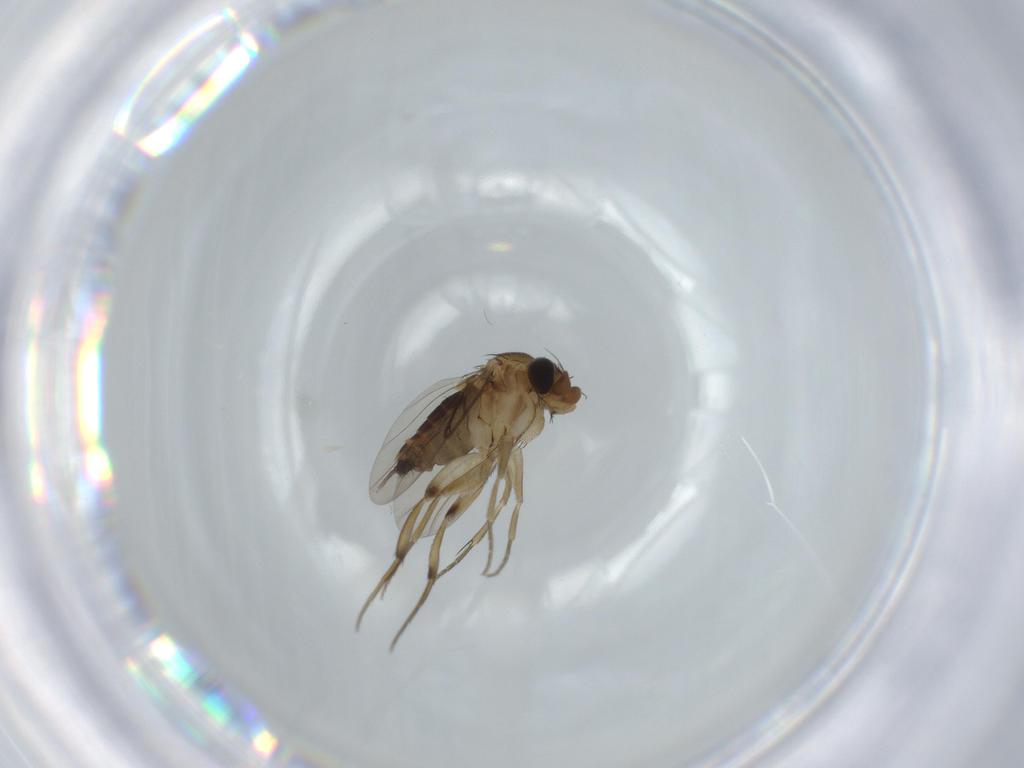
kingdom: Animalia
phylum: Arthropoda
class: Insecta
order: Diptera
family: Phoridae
